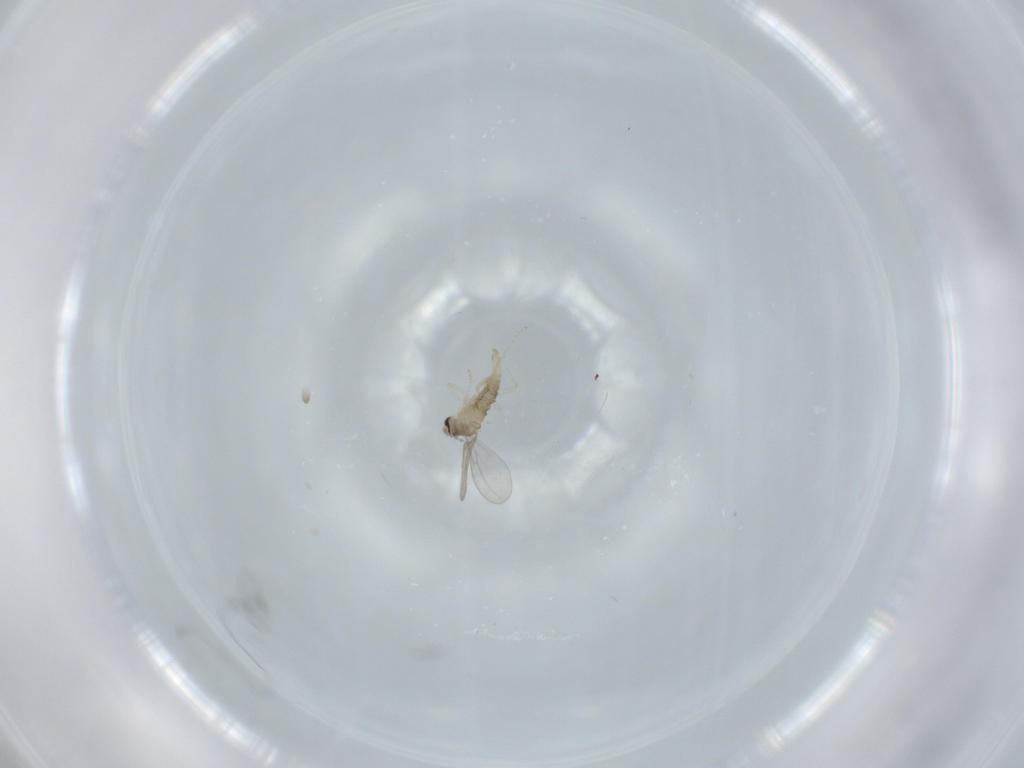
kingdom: Animalia
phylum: Arthropoda
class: Insecta
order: Diptera
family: Cecidomyiidae
